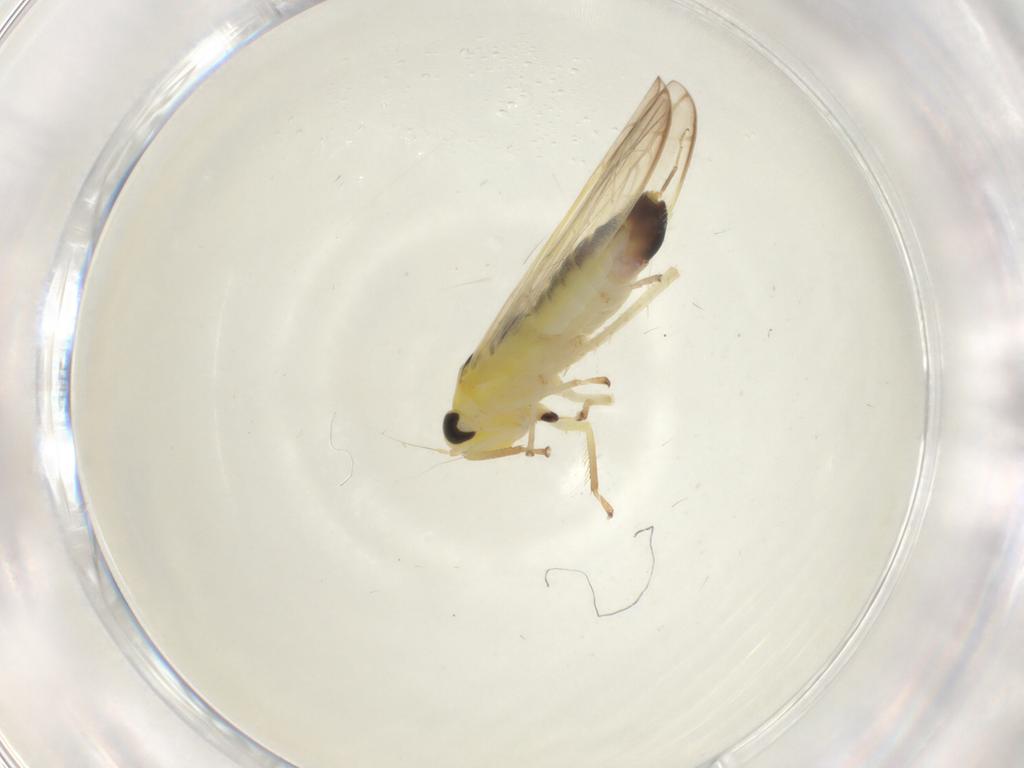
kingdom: Animalia
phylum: Arthropoda
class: Insecta
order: Hemiptera
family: Cicadellidae
